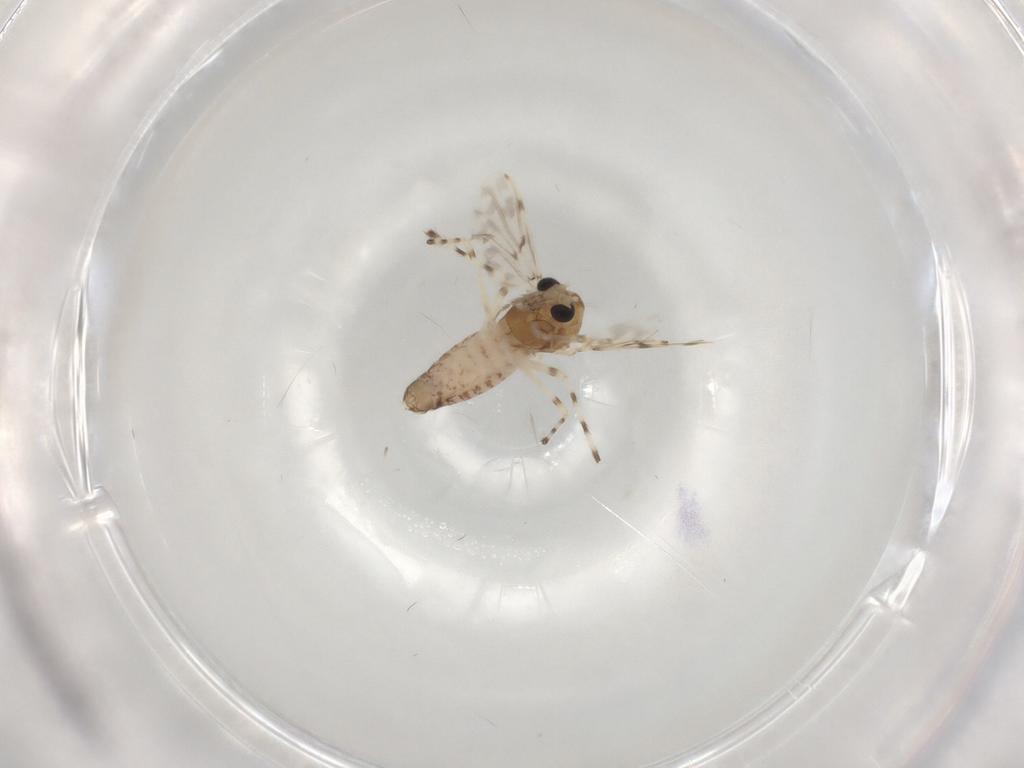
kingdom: Animalia
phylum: Arthropoda
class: Insecta
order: Diptera
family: Chironomidae
